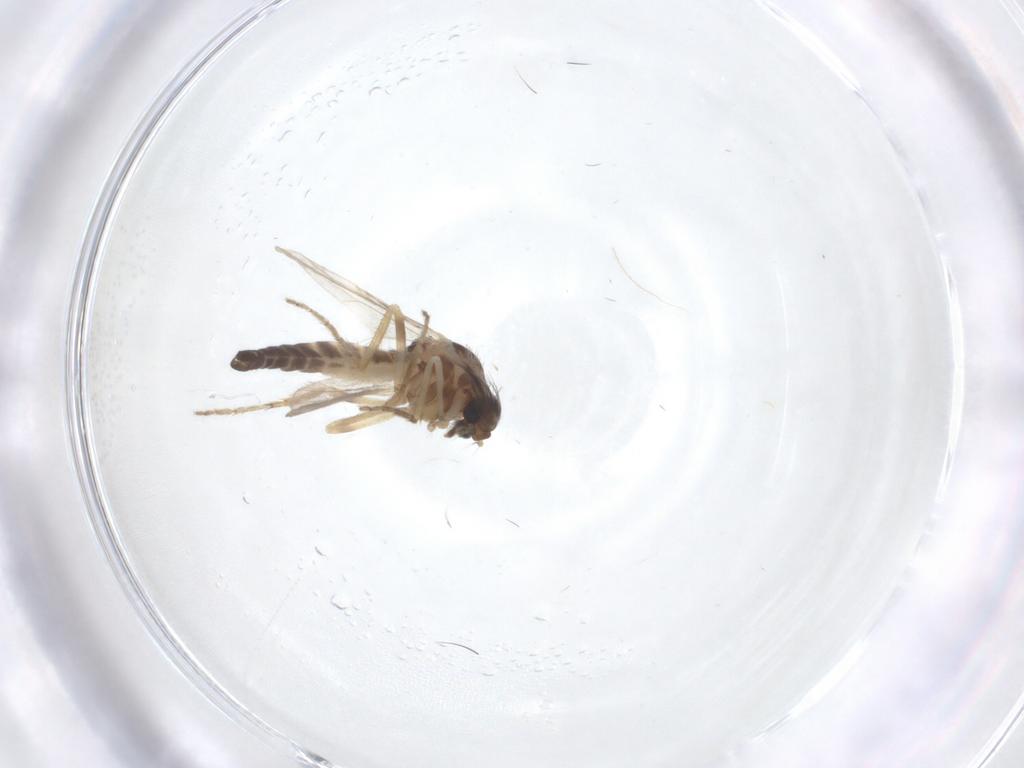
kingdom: Animalia
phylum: Arthropoda
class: Insecta
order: Diptera
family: Ceratopogonidae
